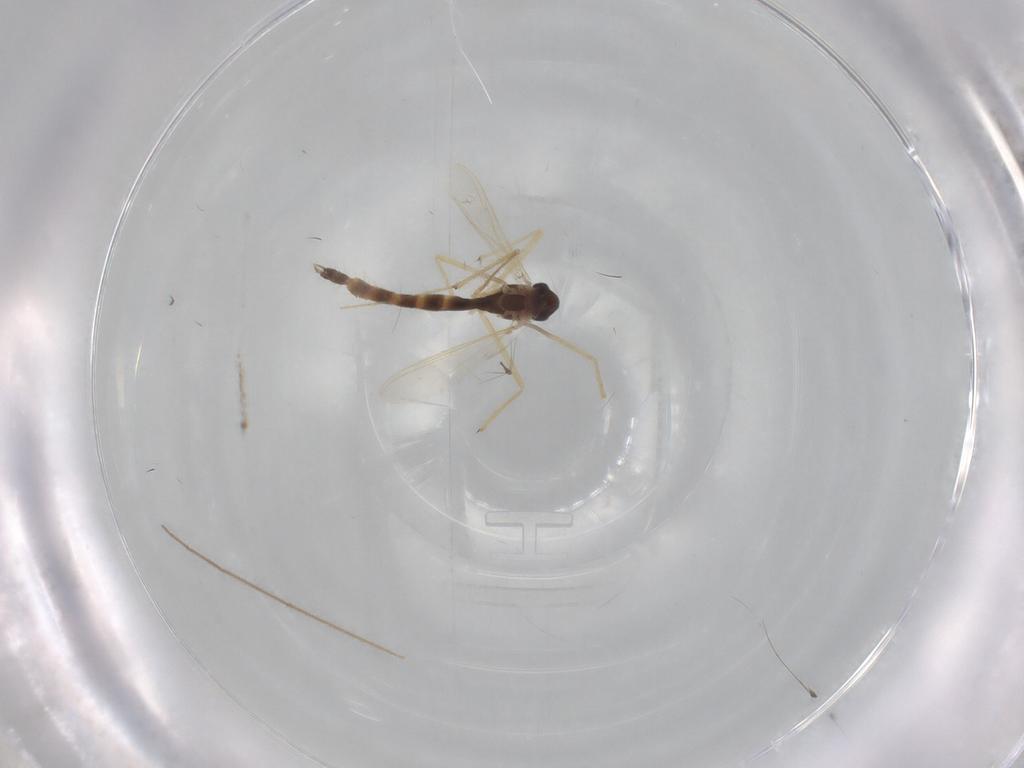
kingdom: Animalia
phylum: Arthropoda
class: Insecta
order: Diptera
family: Chironomidae
